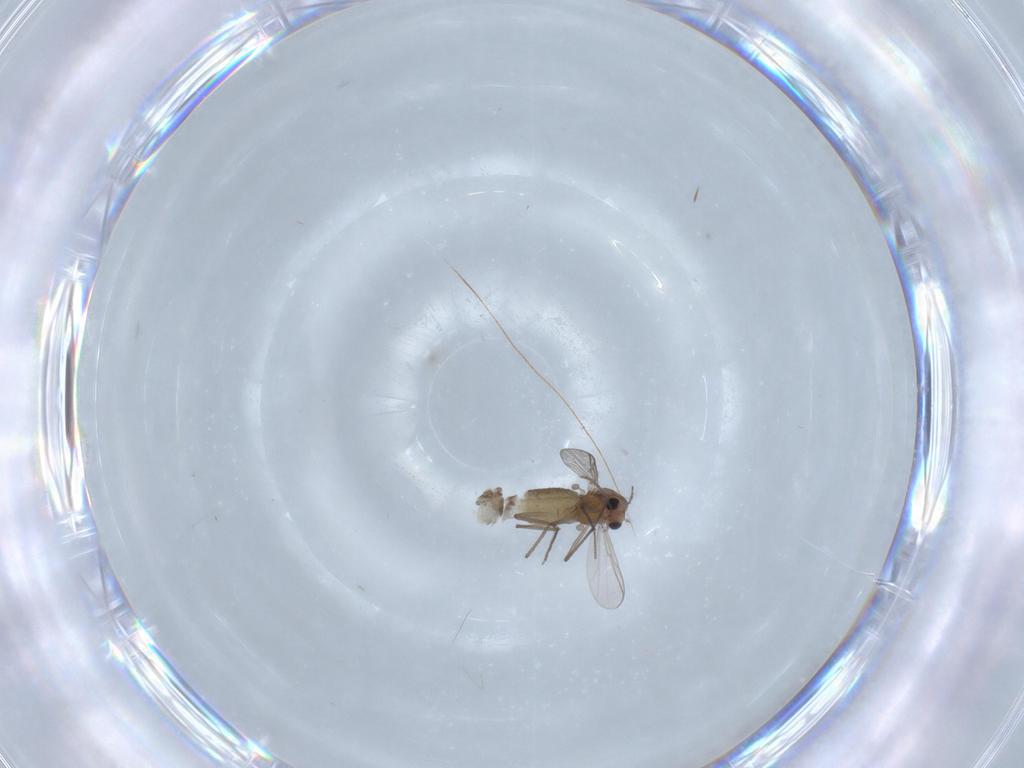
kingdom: Animalia
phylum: Arthropoda
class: Insecta
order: Diptera
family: Chironomidae
